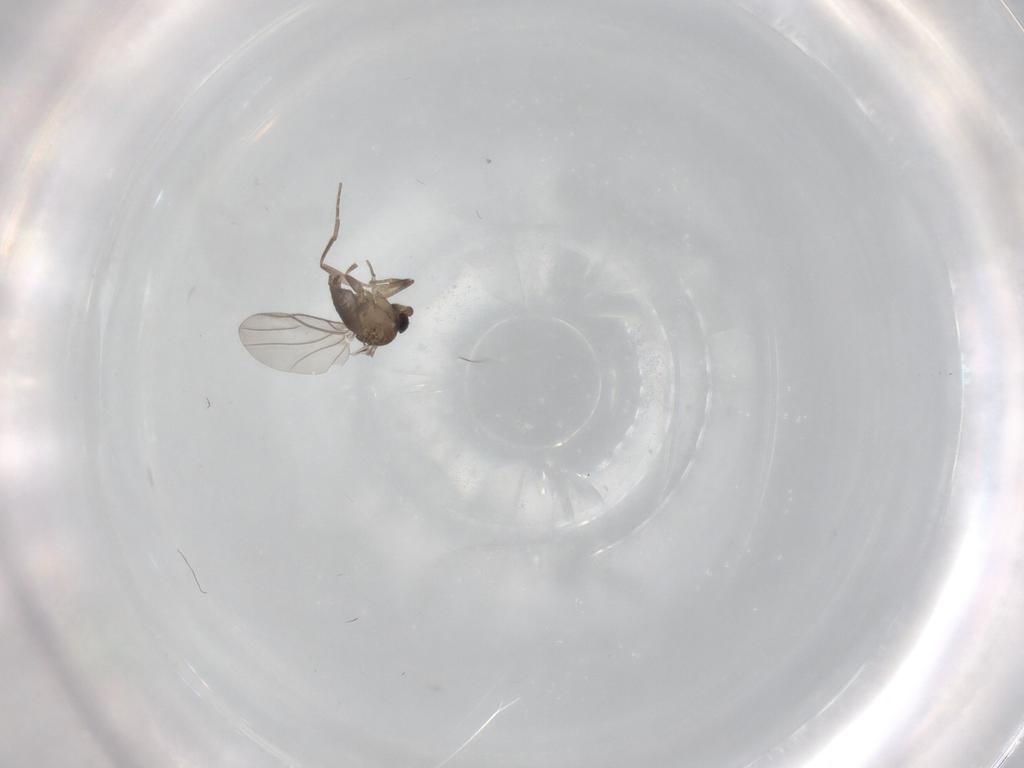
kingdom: Animalia
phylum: Arthropoda
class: Insecta
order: Diptera
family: Phoridae
